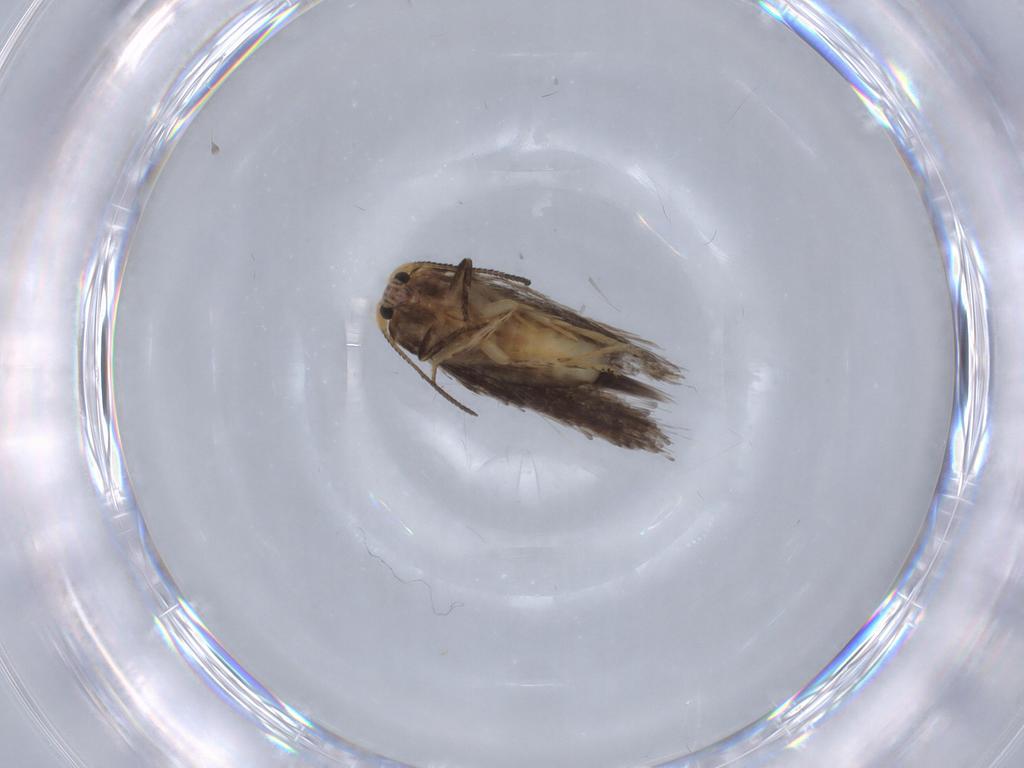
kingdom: Animalia
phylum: Arthropoda
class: Insecta
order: Lepidoptera
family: Nepticulidae
